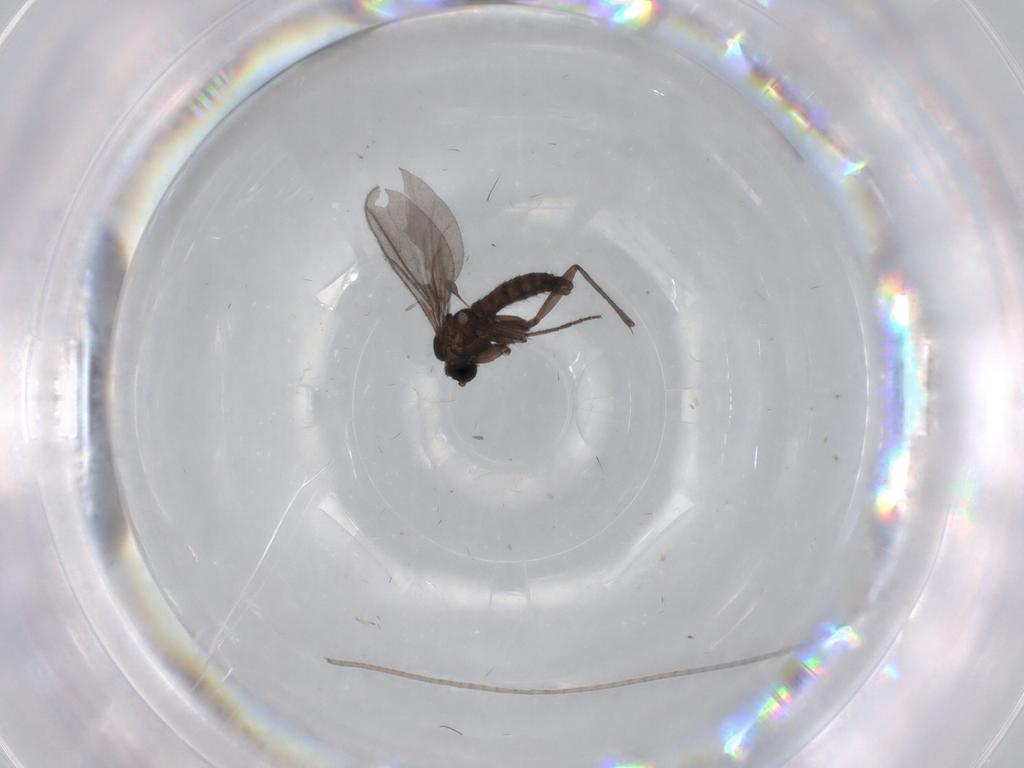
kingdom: Animalia
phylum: Arthropoda
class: Insecta
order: Diptera
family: Sciaridae
